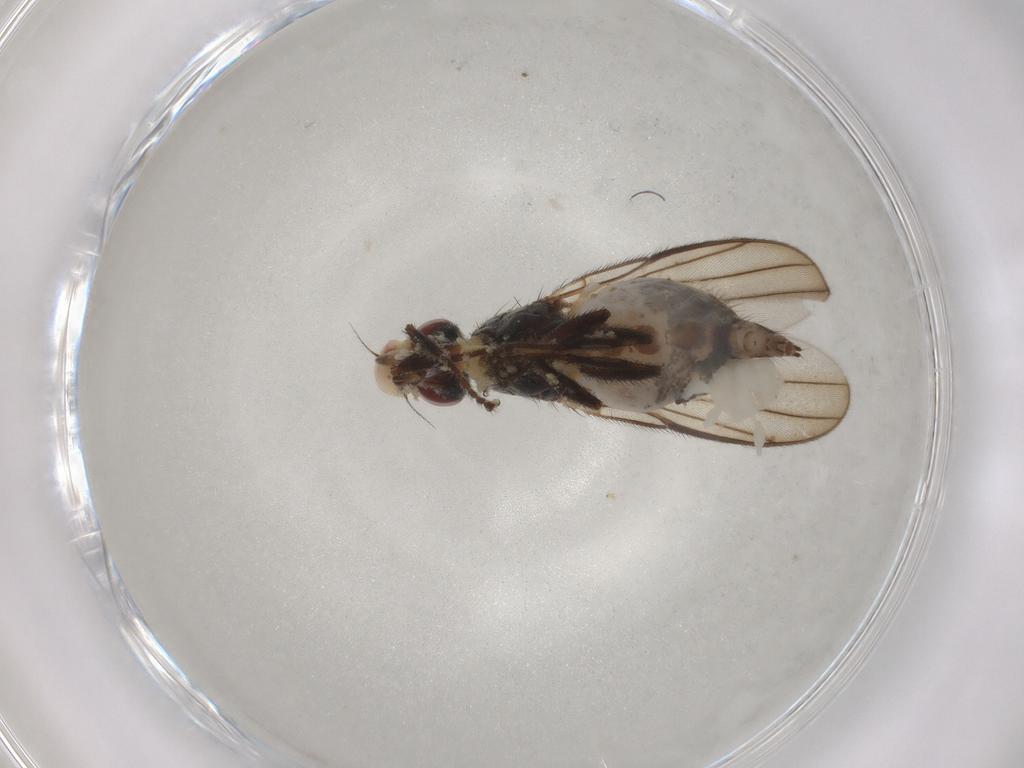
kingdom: Animalia
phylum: Arthropoda
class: Insecta
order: Diptera
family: Chloropidae
